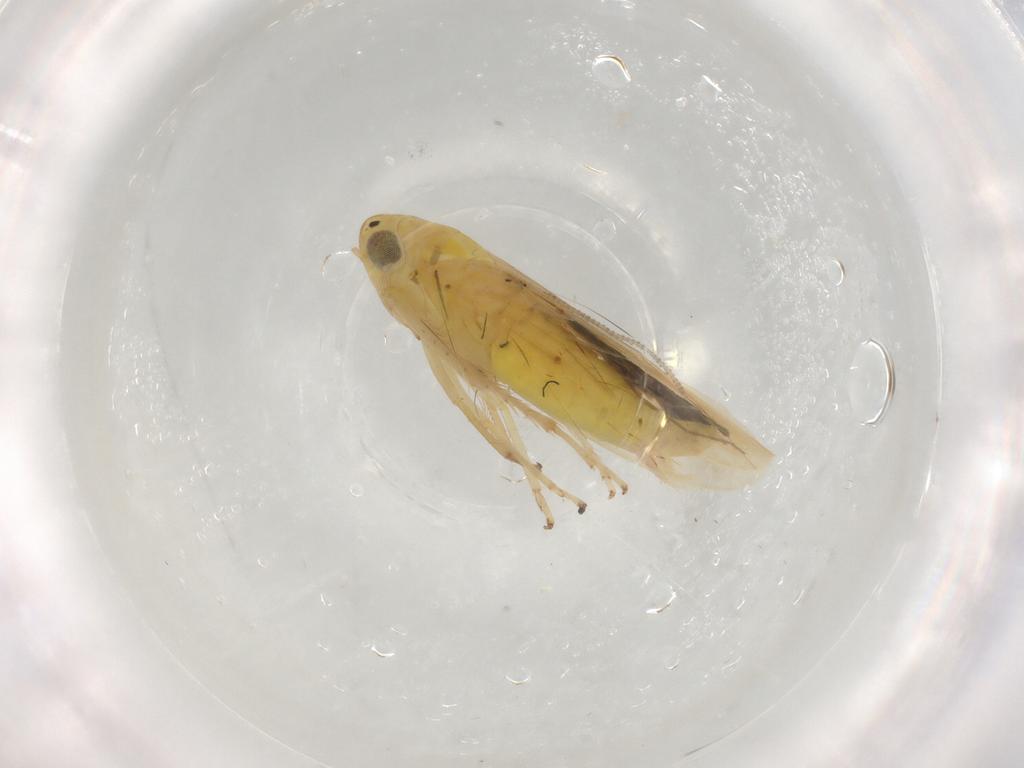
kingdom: Animalia
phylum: Arthropoda
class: Insecta
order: Hemiptera
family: Cicadellidae
